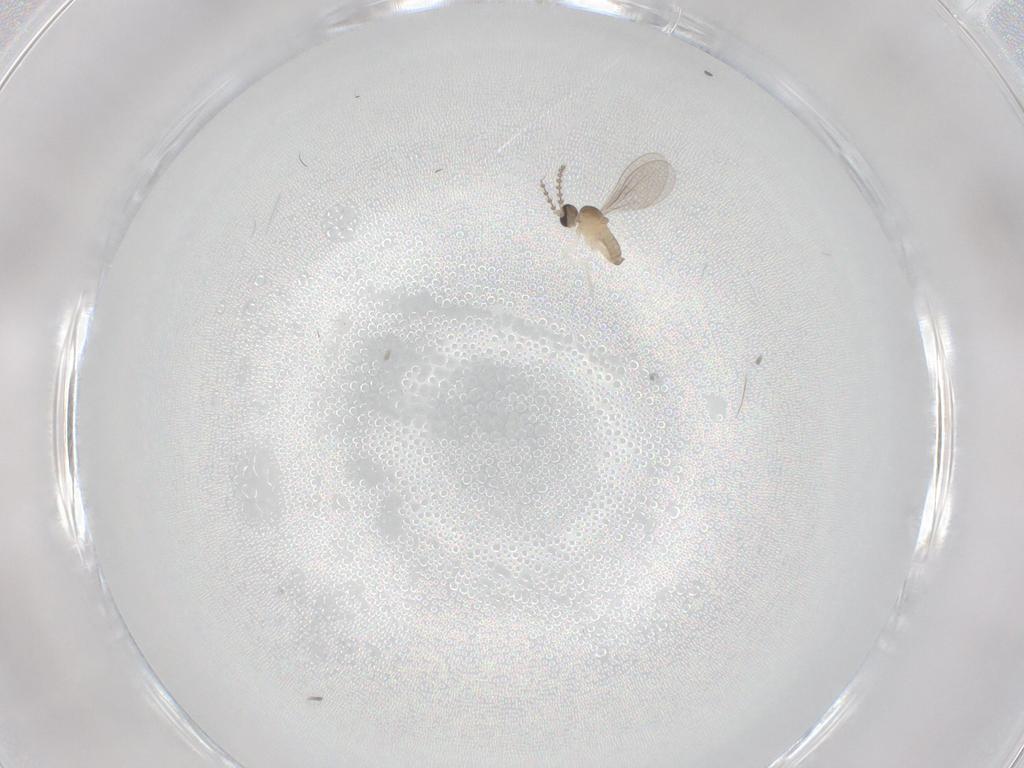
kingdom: Animalia
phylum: Arthropoda
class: Insecta
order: Diptera
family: Cecidomyiidae
